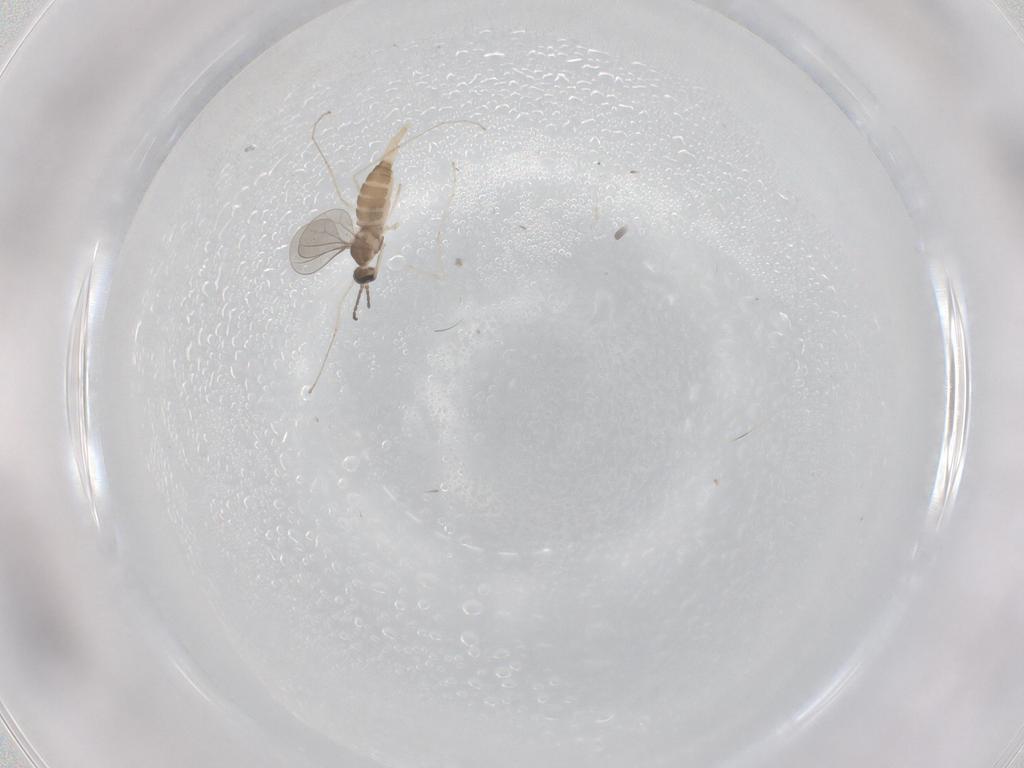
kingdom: Animalia
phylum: Arthropoda
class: Insecta
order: Diptera
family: Cecidomyiidae
